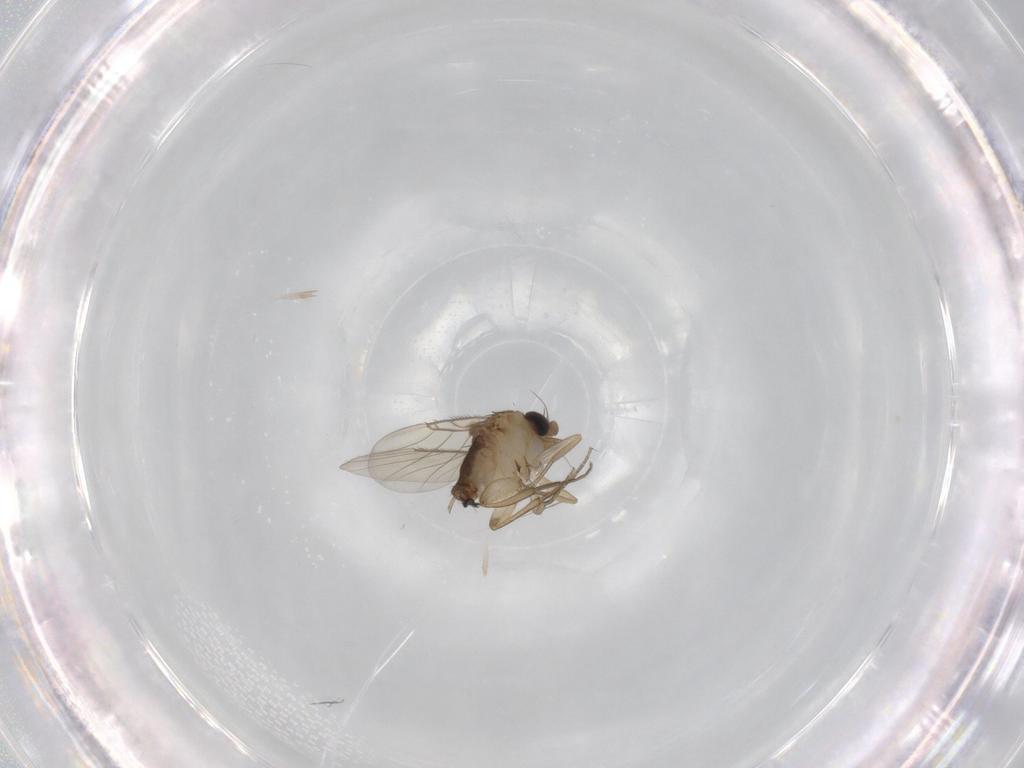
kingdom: Animalia
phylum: Arthropoda
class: Insecta
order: Diptera
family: Phoridae
